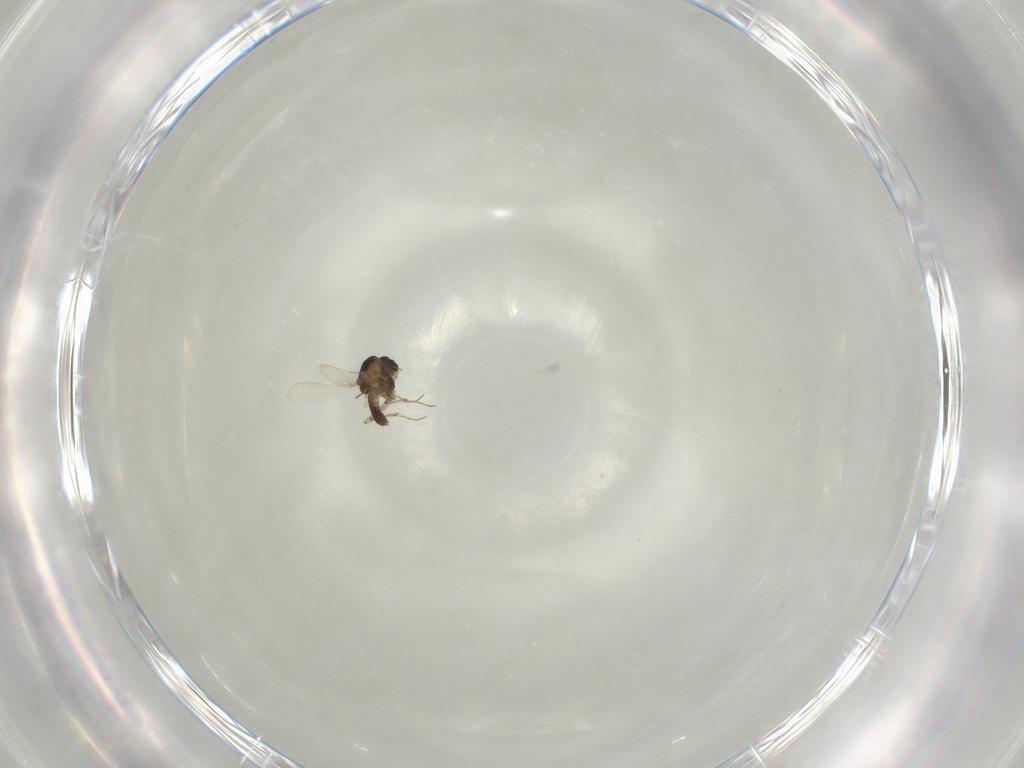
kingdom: Animalia
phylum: Arthropoda
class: Insecta
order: Diptera
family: Chironomidae
